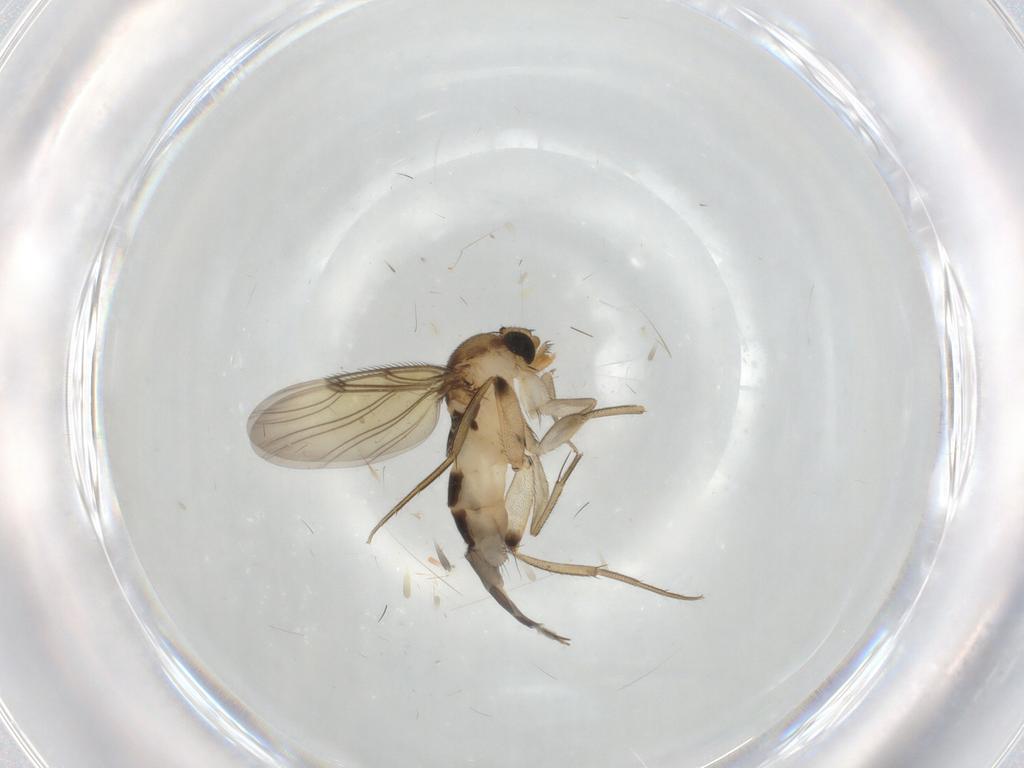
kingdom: Animalia
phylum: Arthropoda
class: Insecta
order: Diptera
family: Phoridae
